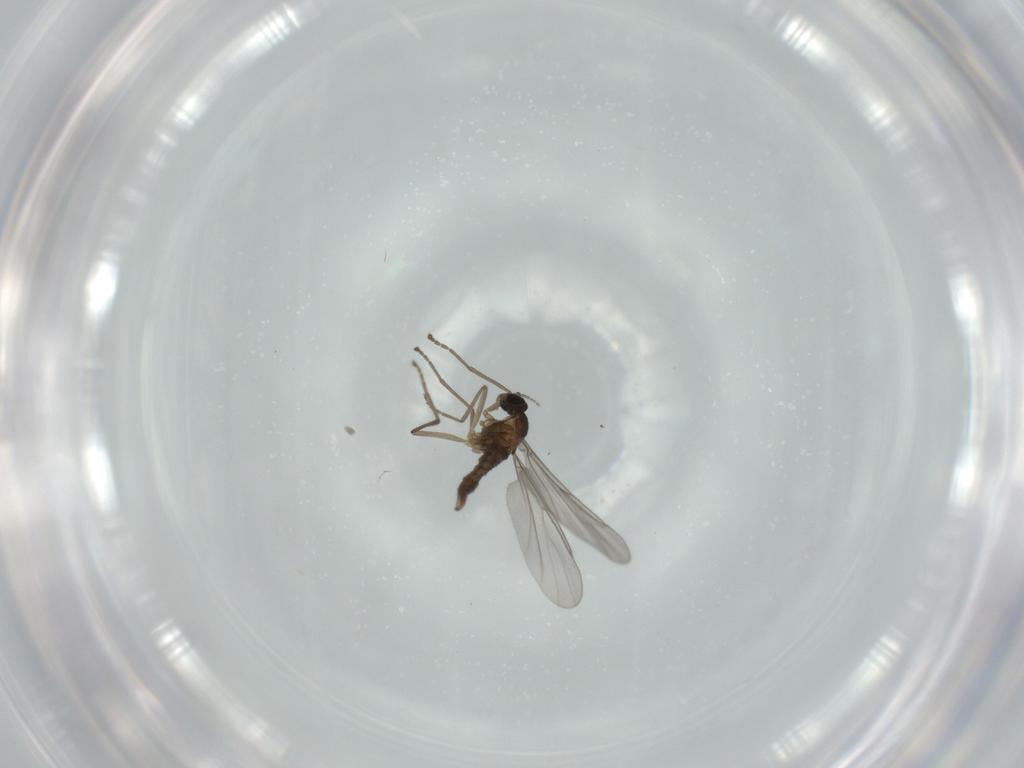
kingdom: Animalia
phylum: Arthropoda
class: Insecta
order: Diptera
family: Cecidomyiidae
